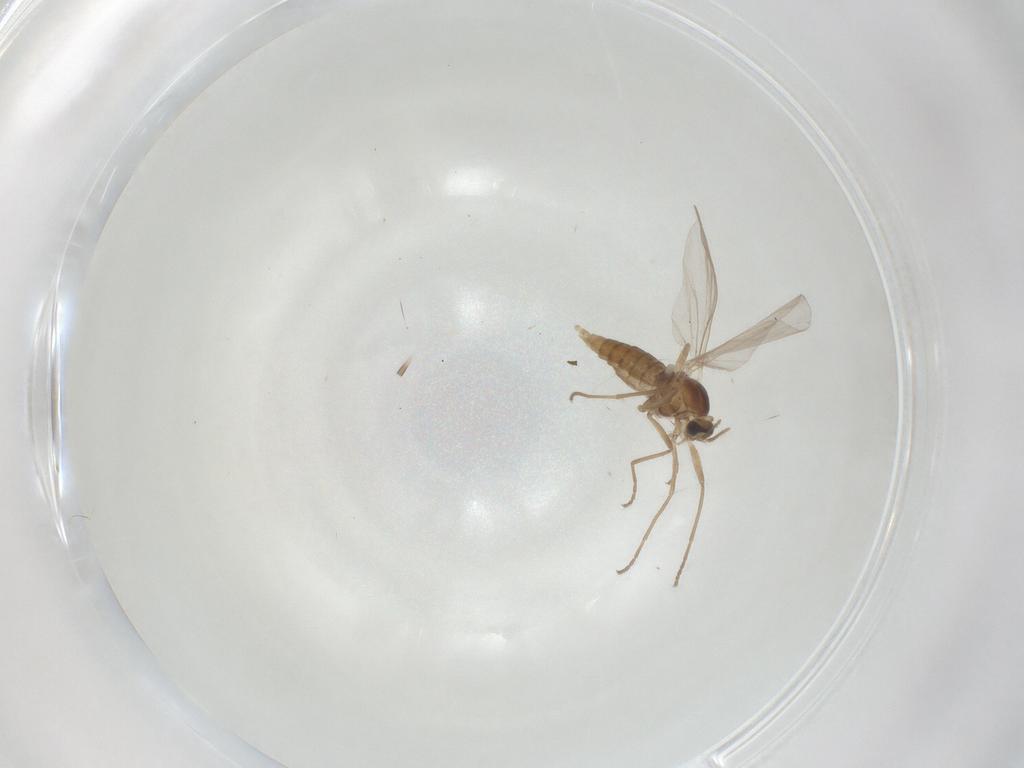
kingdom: Animalia
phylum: Arthropoda
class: Insecta
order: Diptera
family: Cecidomyiidae
